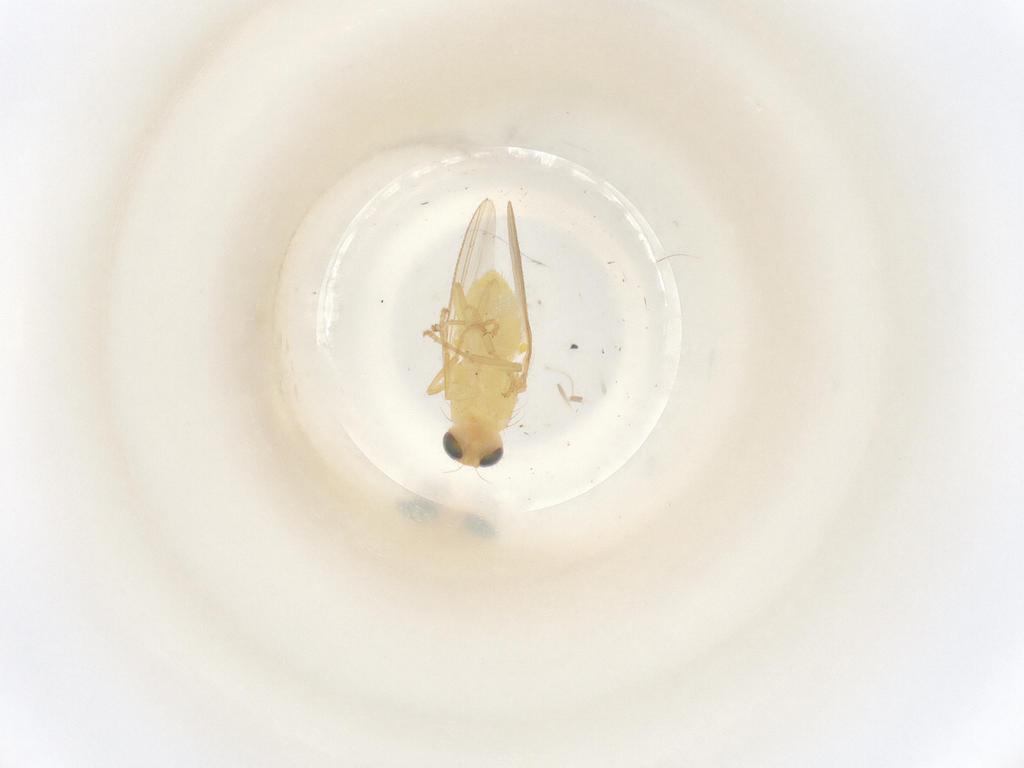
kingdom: Animalia
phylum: Arthropoda
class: Insecta
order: Diptera
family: Chyromyidae
